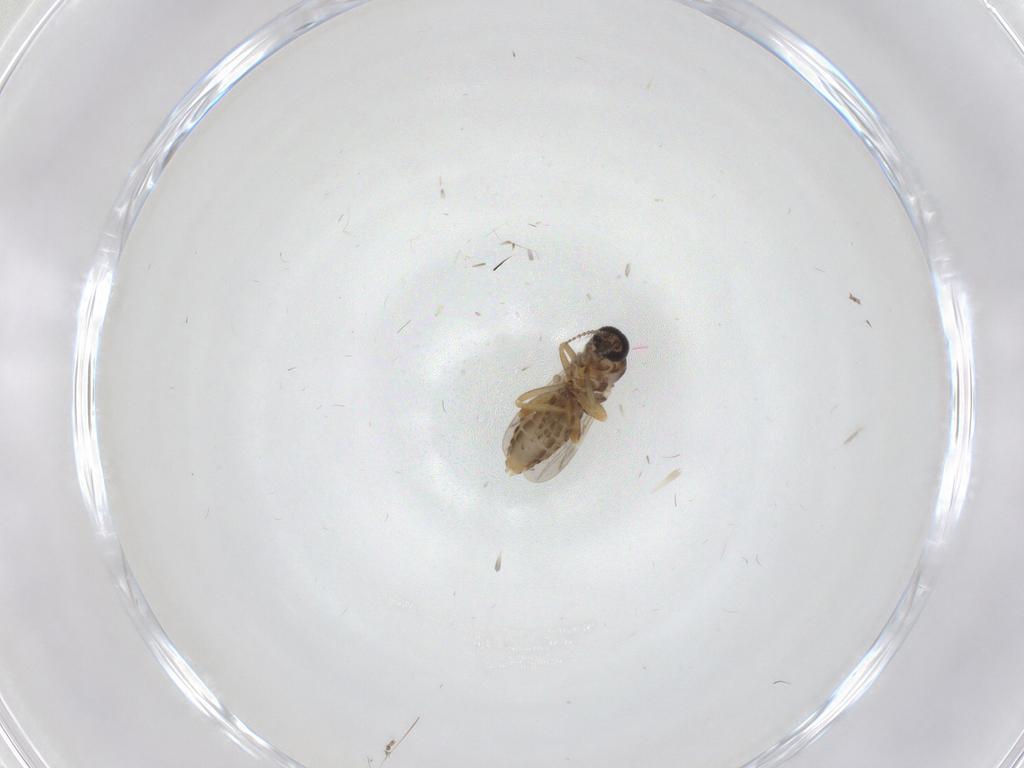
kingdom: Animalia
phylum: Arthropoda
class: Insecta
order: Diptera
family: Ceratopogonidae
